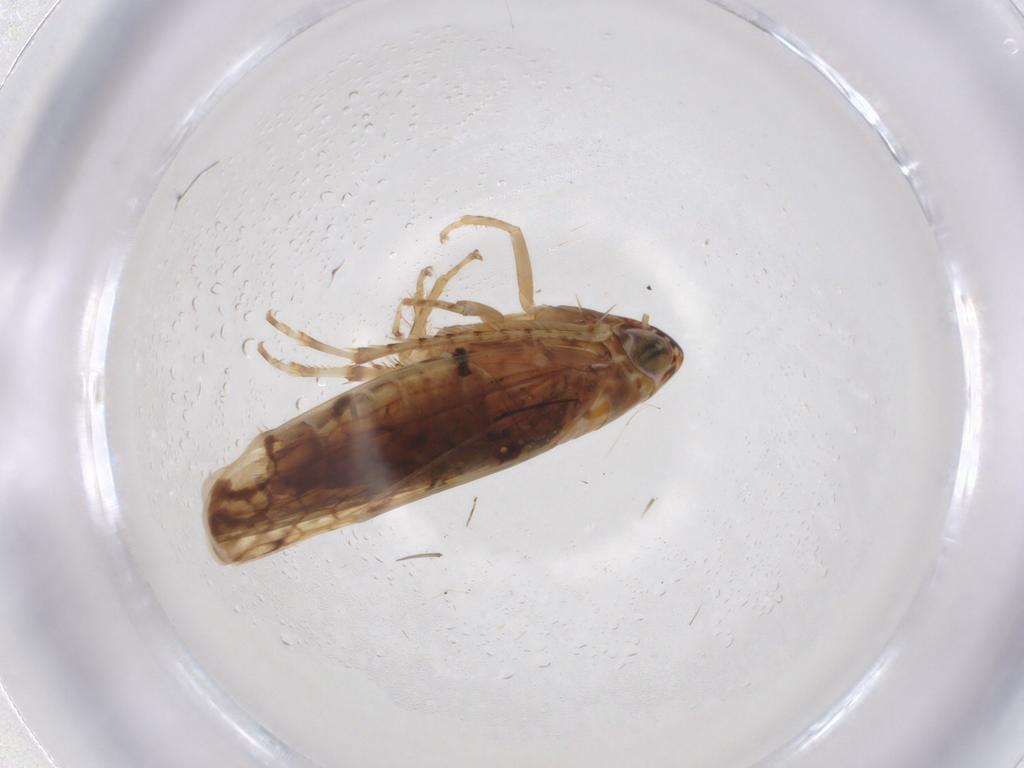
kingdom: Animalia
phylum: Arthropoda
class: Insecta
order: Hemiptera
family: Cicadellidae
